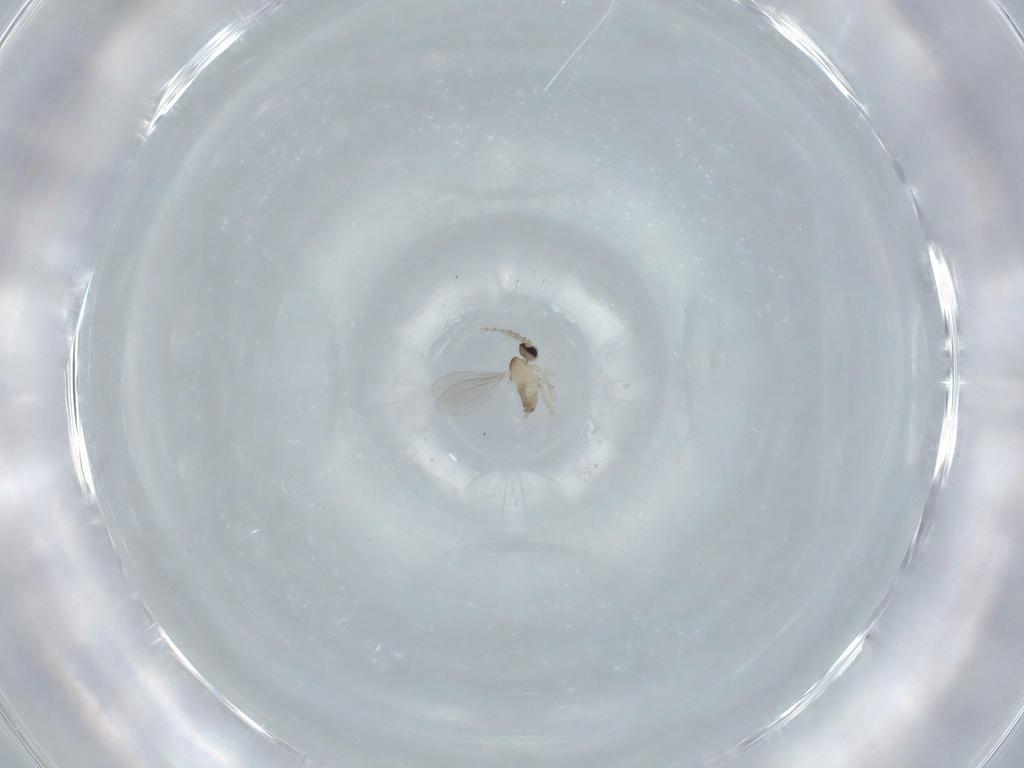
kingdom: Animalia
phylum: Arthropoda
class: Insecta
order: Diptera
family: Cecidomyiidae
